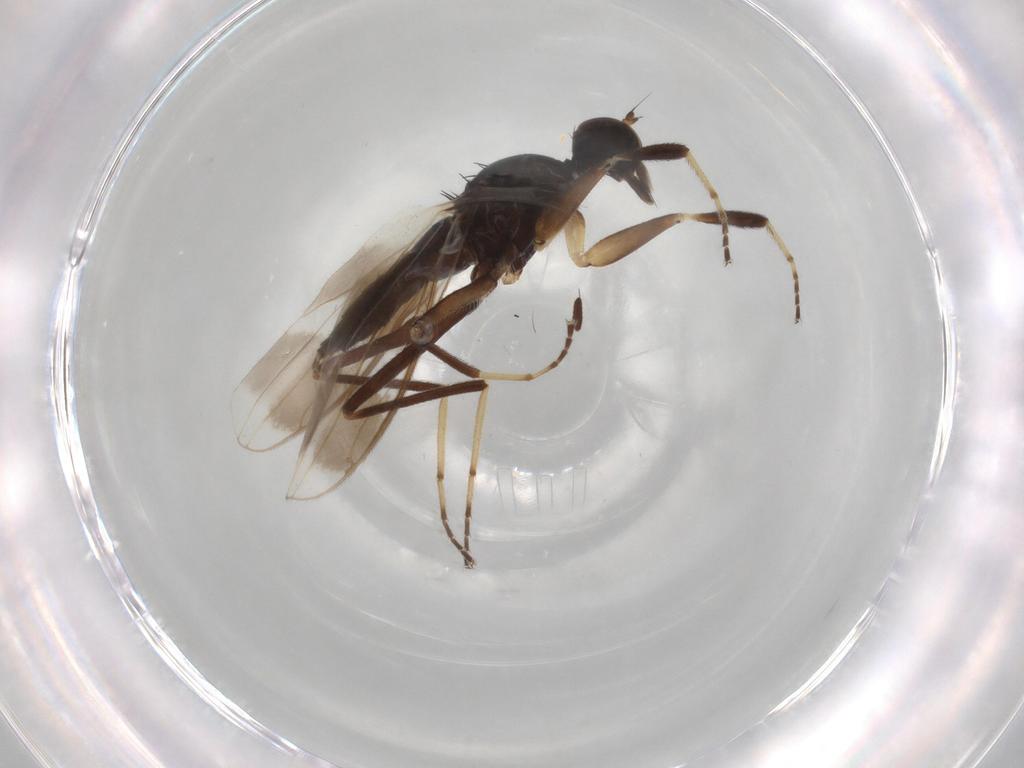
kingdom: Animalia
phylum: Arthropoda
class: Insecta
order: Diptera
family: Hybotidae
